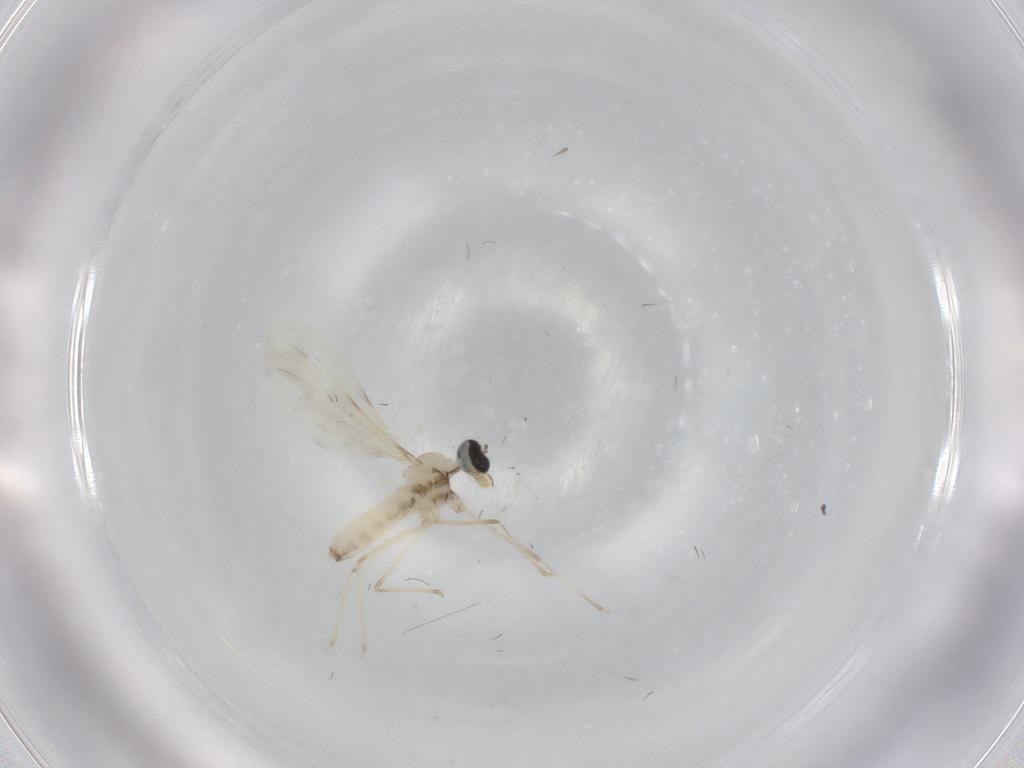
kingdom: Animalia
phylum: Arthropoda
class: Insecta
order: Diptera
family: Cecidomyiidae
